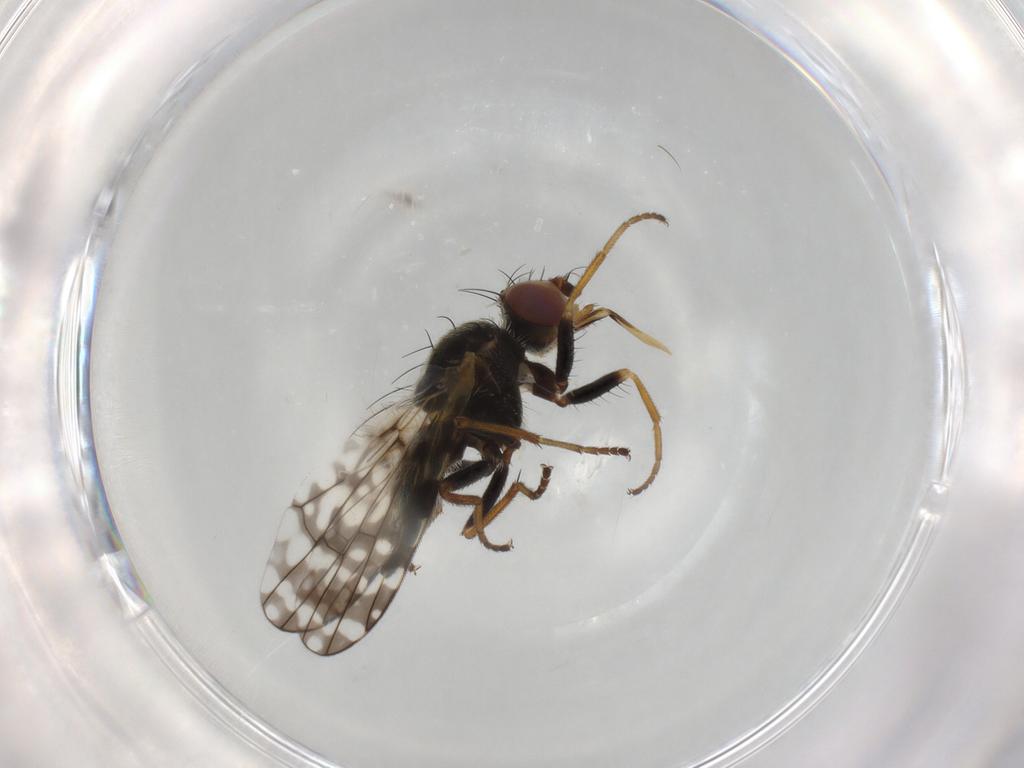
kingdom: Animalia
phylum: Arthropoda
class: Insecta
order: Diptera
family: Tephritidae
